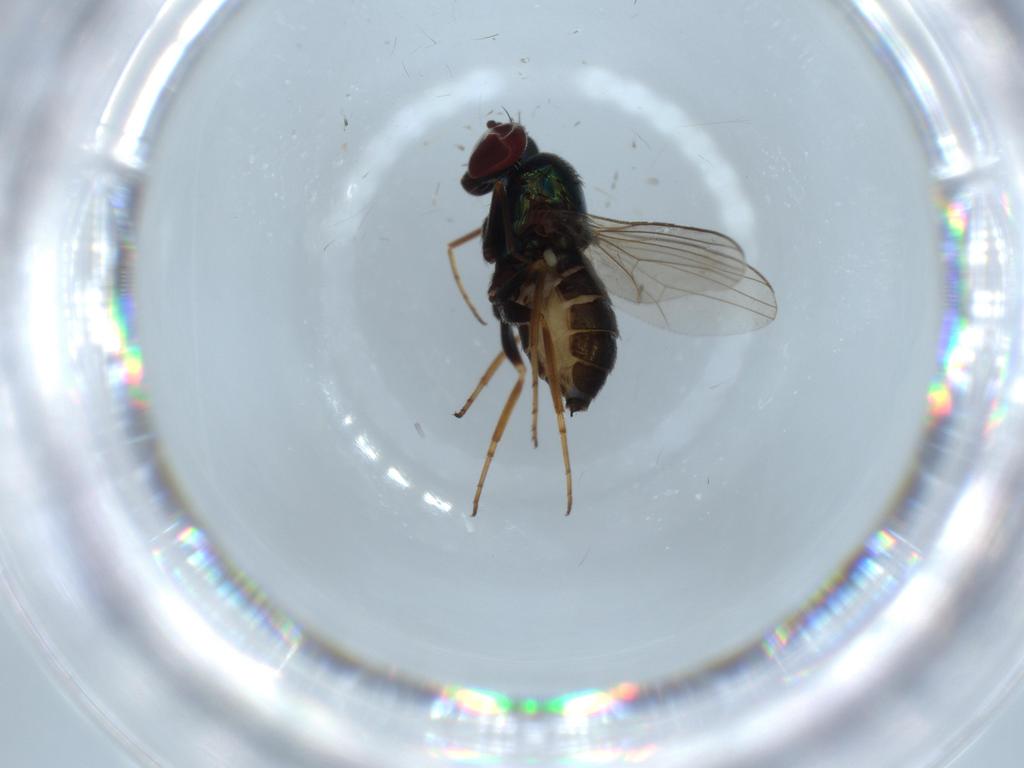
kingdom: Animalia
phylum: Arthropoda
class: Insecta
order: Diptera
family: Dolichopodidae
